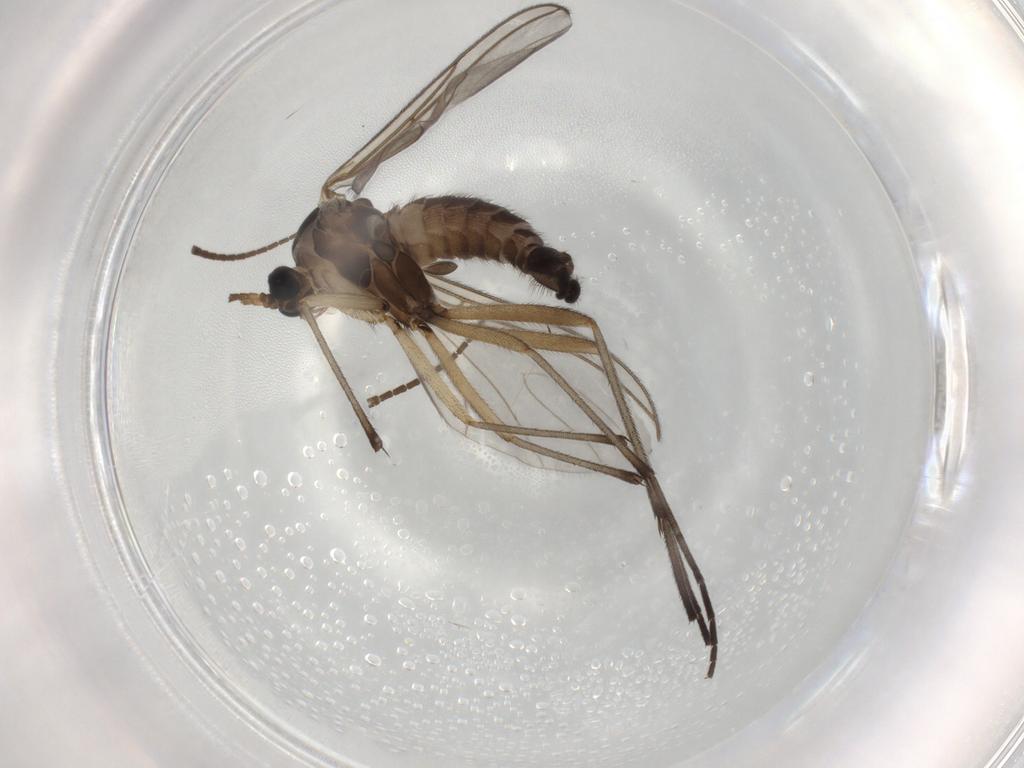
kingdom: Animalia
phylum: Arthropoda
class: Insecta
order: Diptera
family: Sciaridae
